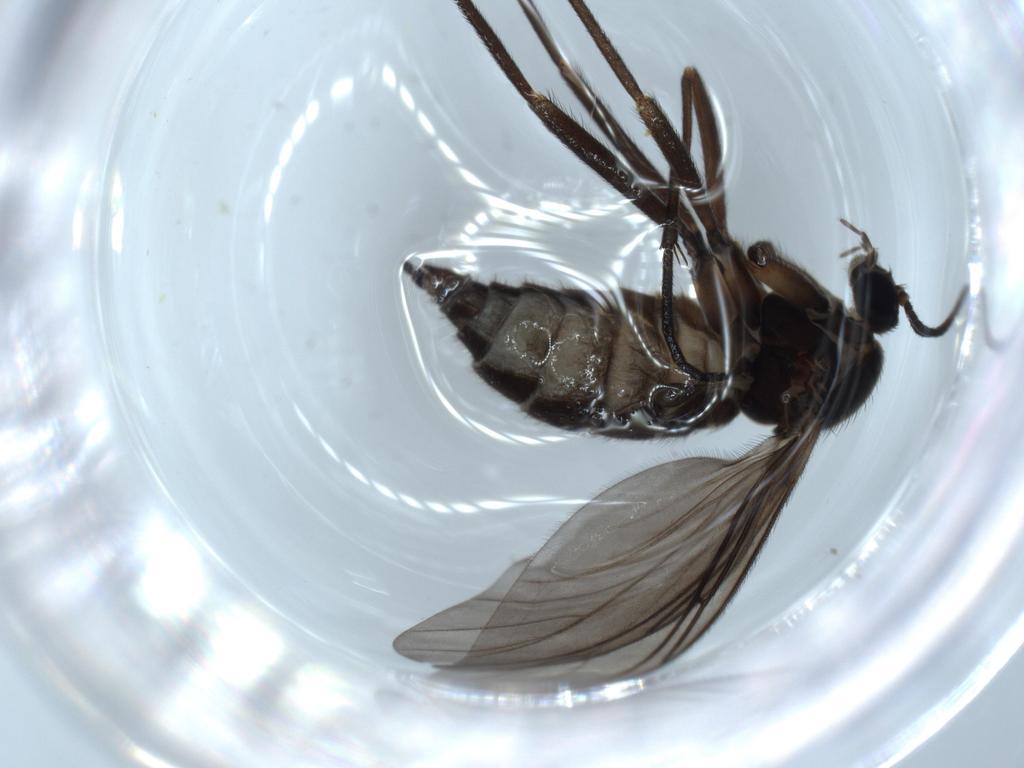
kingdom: Animalia
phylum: Arthropoda
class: Insecta
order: Diptera
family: Sciaridae
